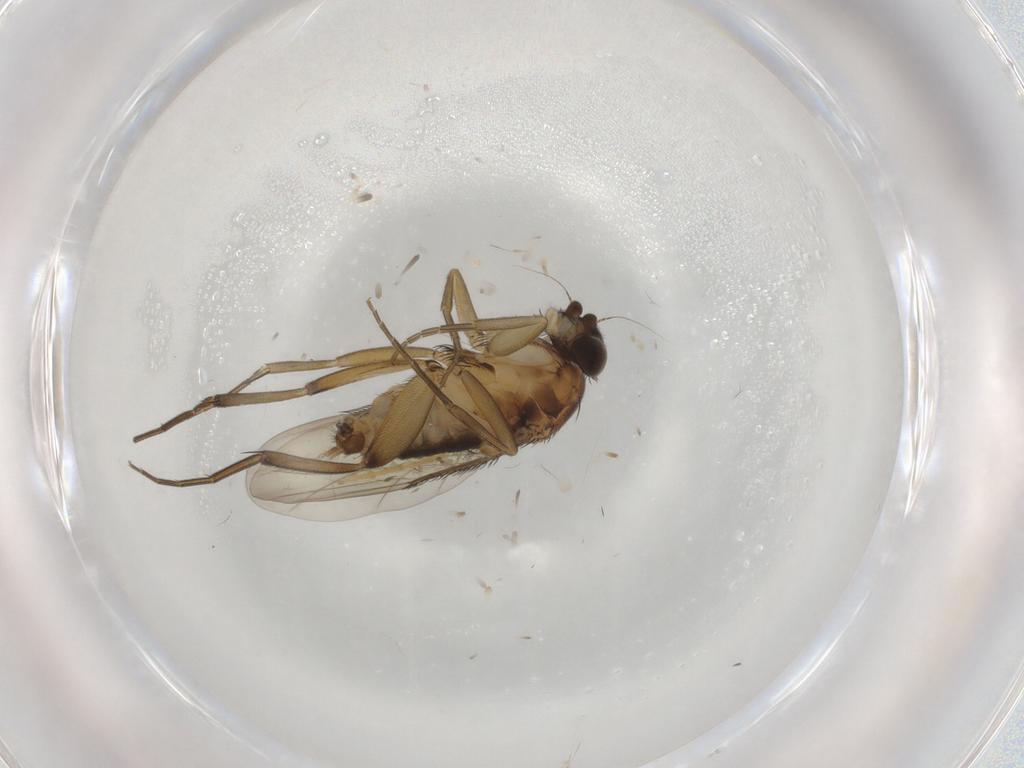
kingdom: Animalia
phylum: Arthropoda
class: Insecta
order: Diptera
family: Phoridae
